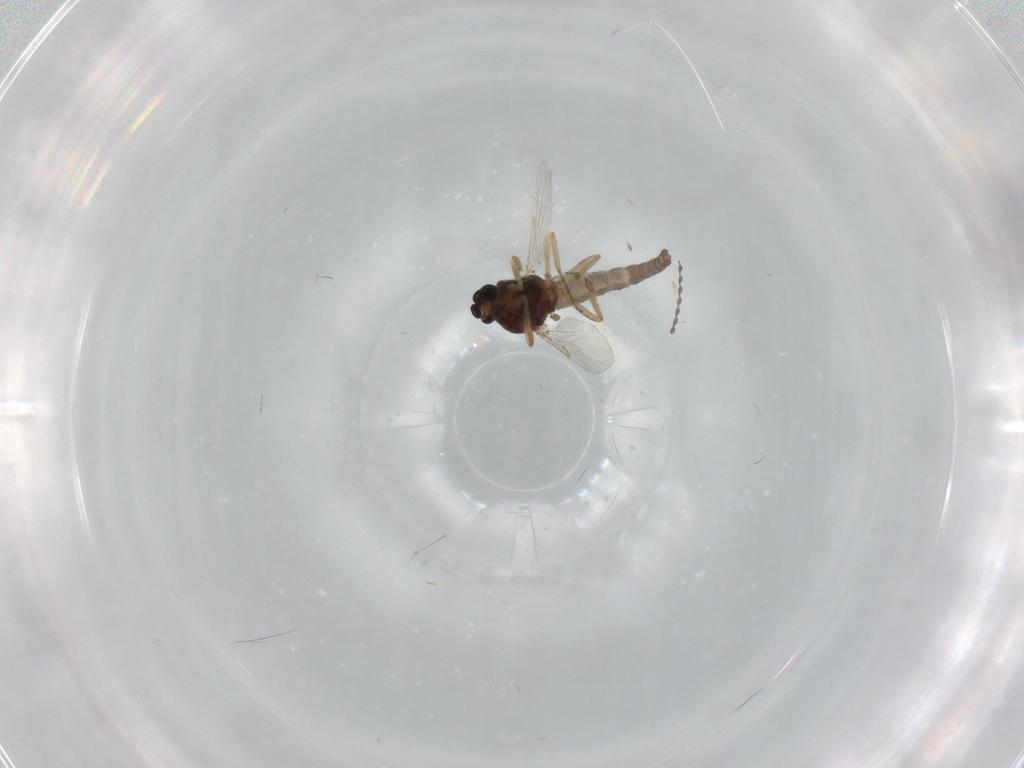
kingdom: Animalia
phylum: Arthropoda
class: Insecta
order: Diptera
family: Ceratopogonidae
